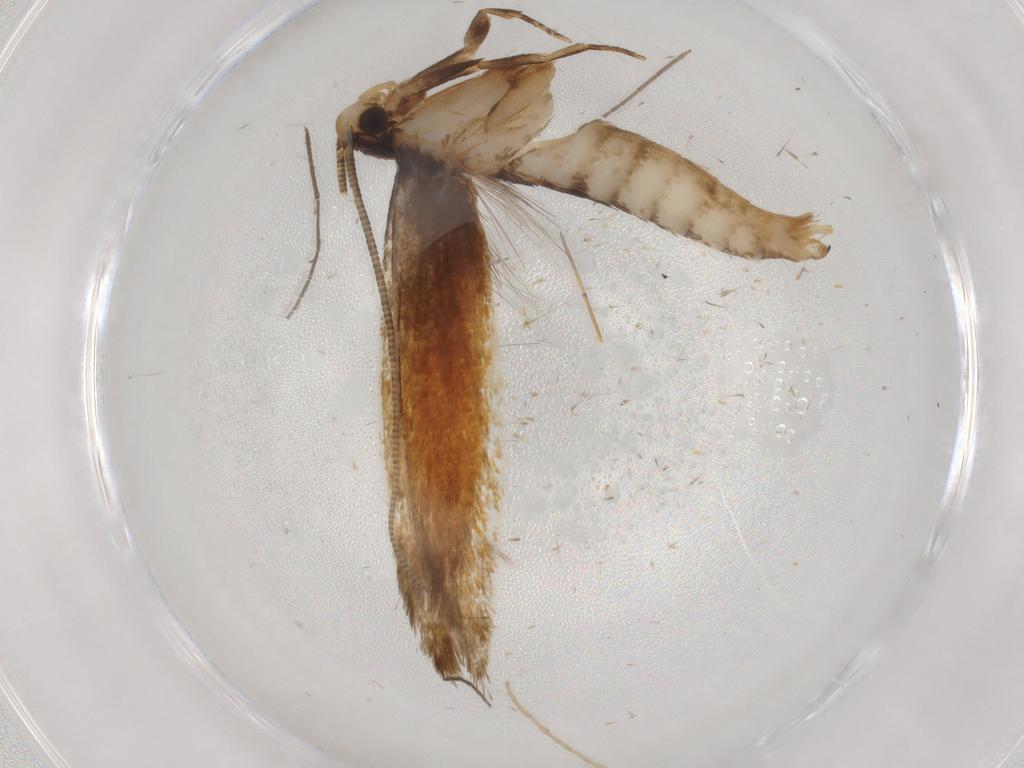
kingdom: Animalia
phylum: Arthropoda
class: Insecta
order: Lepidoptera
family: Tineidae
